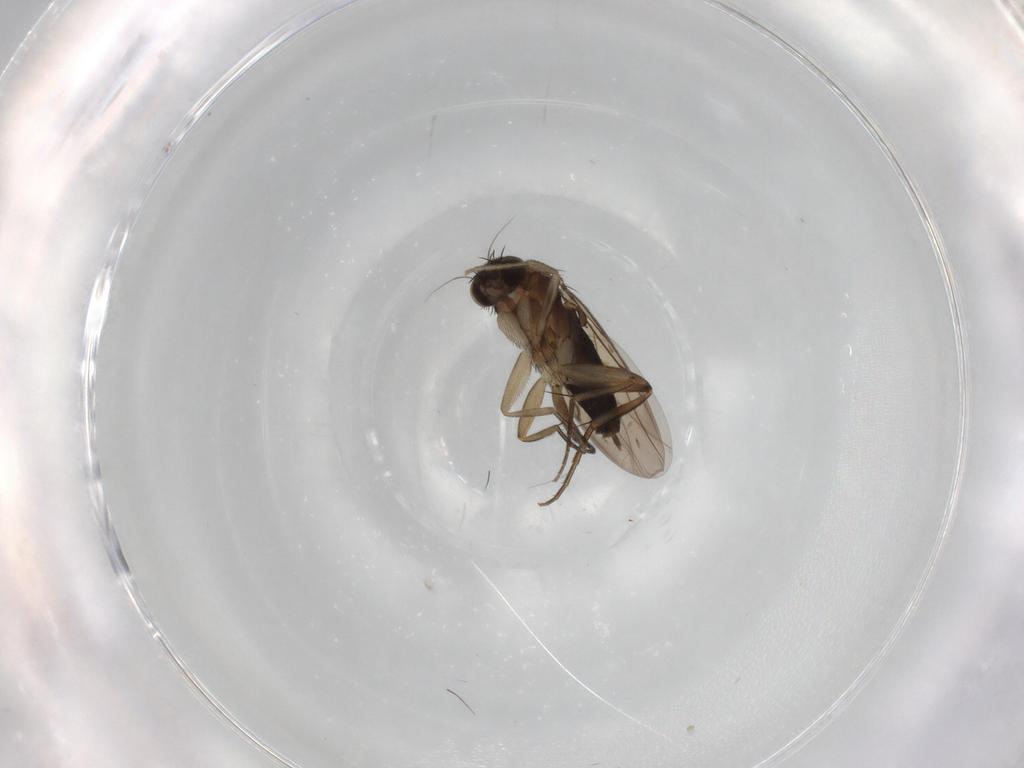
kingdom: Animalia
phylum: Arthropoda
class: Insecta
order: Diptera
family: Phoridae
